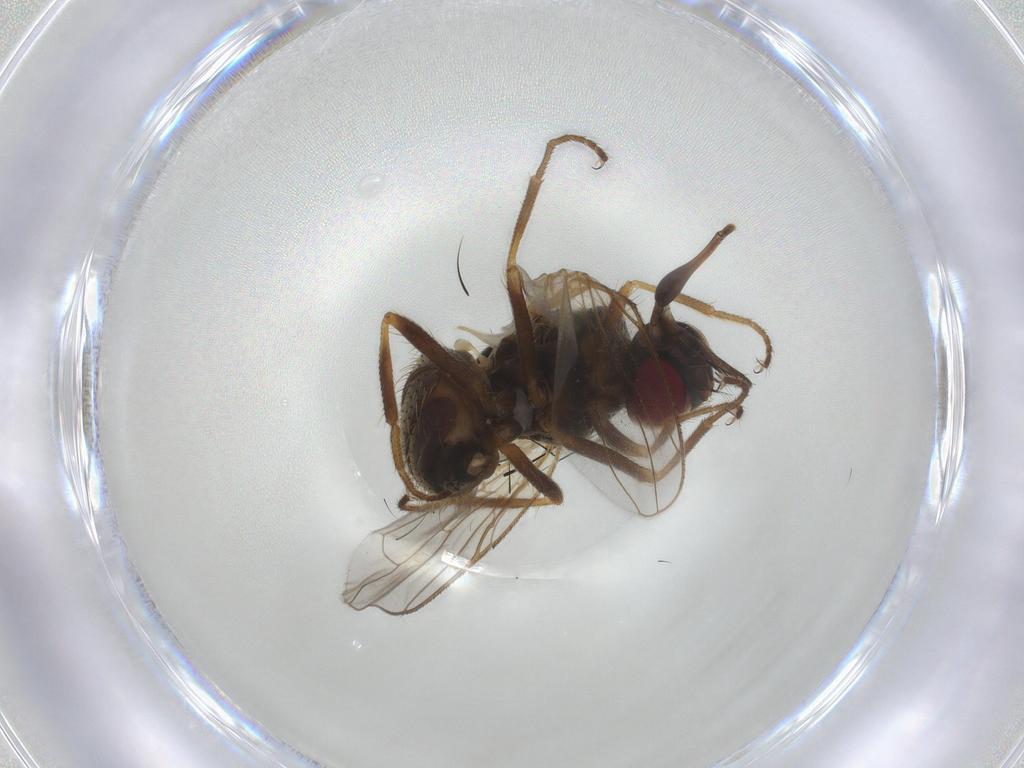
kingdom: Animalia
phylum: Arthropoda
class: Insecta
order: Diptera
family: Muscidae
